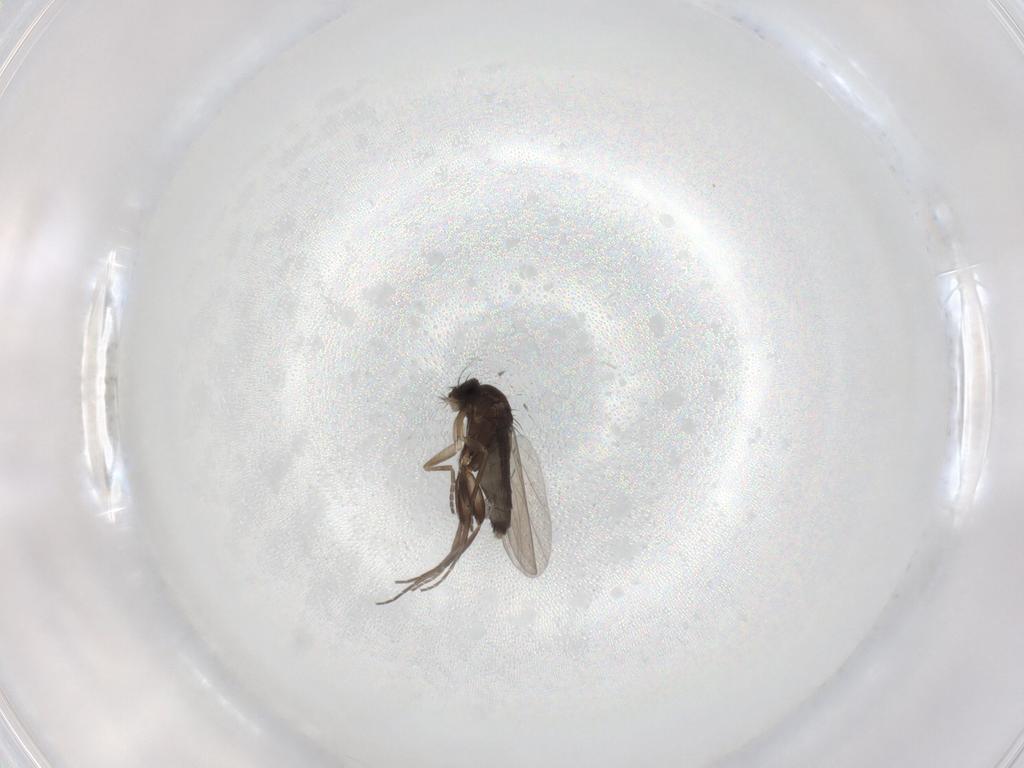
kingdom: Animalia
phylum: Arthropoda
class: Insecta
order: Diptera
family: Phoridae
